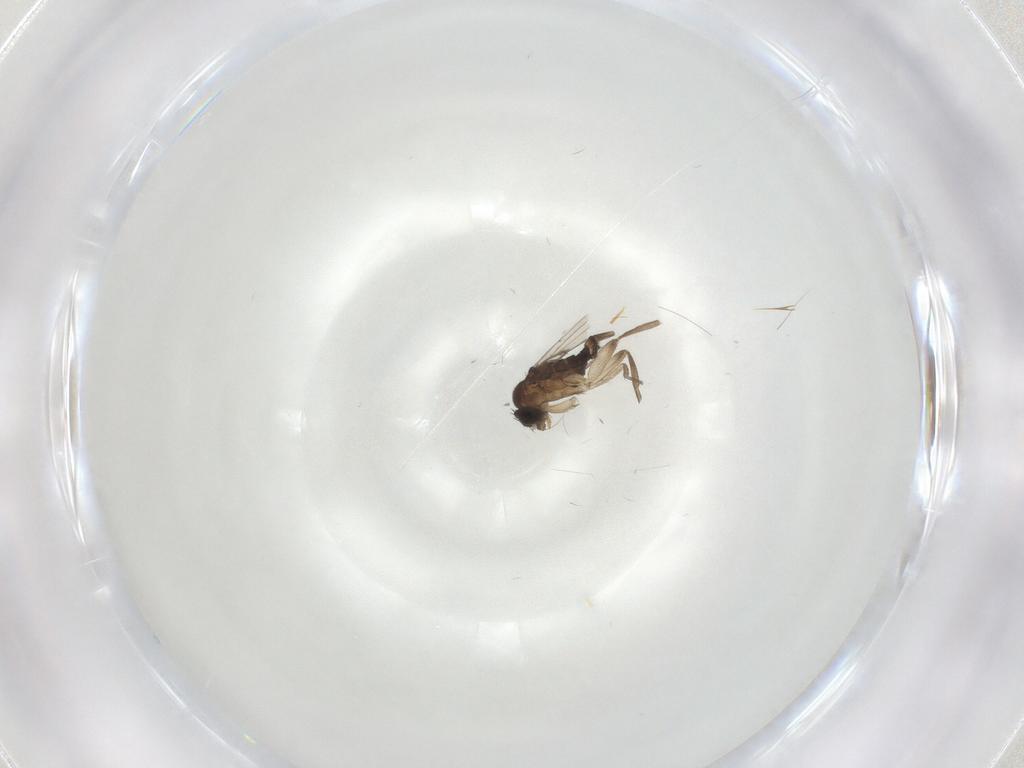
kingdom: Animalia
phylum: Arthropoda
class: Insecta
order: Diptera
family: Phoridae
